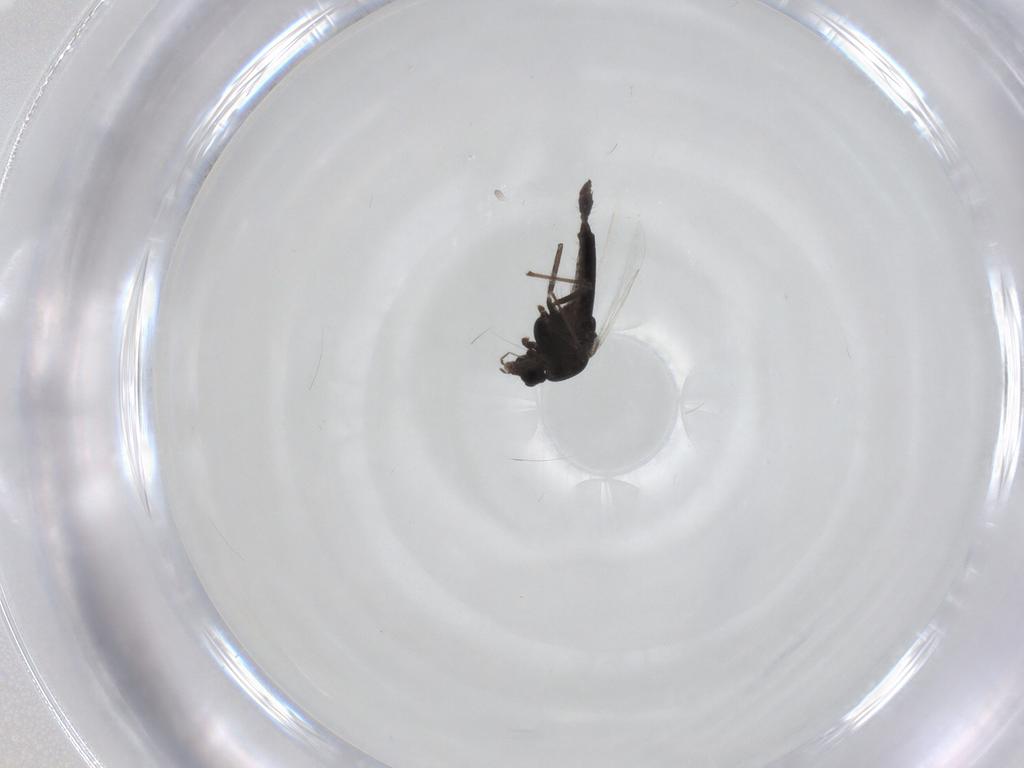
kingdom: Animalia
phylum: Arthropoda
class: Insecta
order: Diptera
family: Chironomidae
